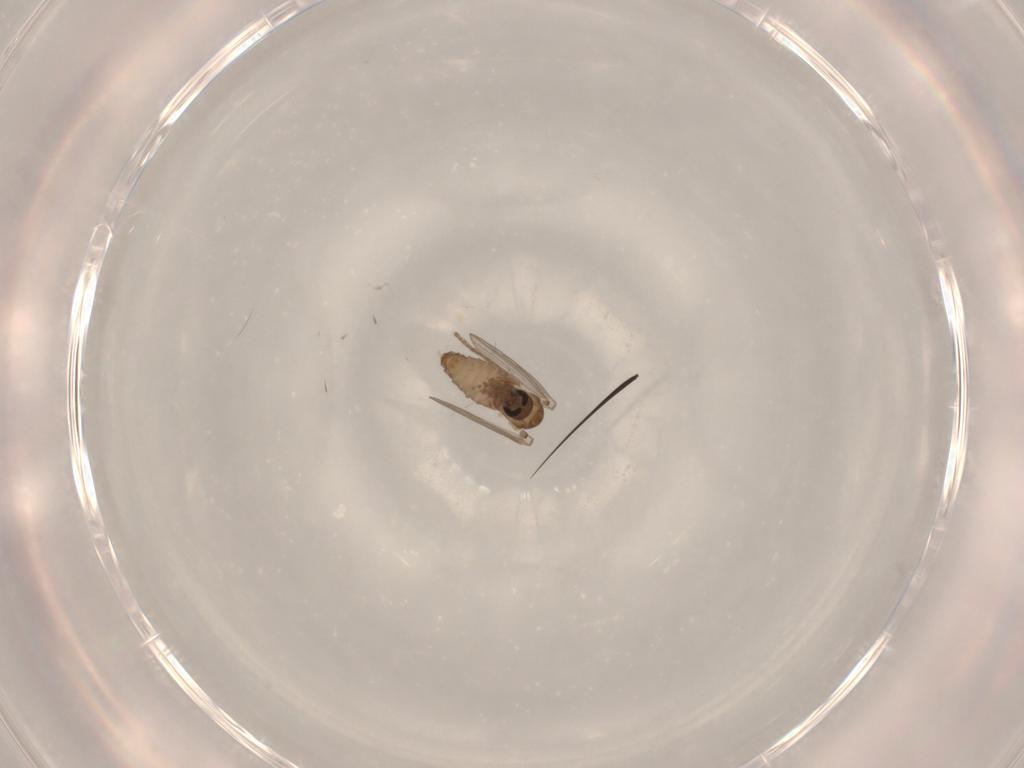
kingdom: Animalia
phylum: Arthropoda
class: Insecta
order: Diptera
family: Psychodidae
